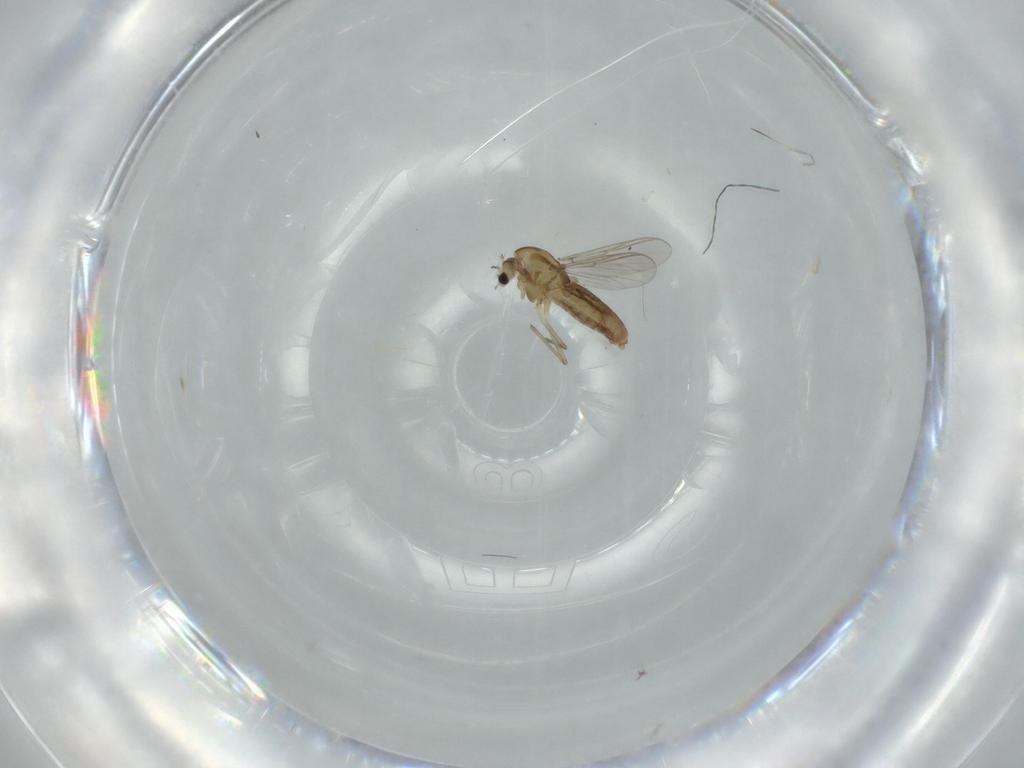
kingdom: Animalia
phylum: Arthropoda
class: Insecta
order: Diptera
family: Chironomidae
